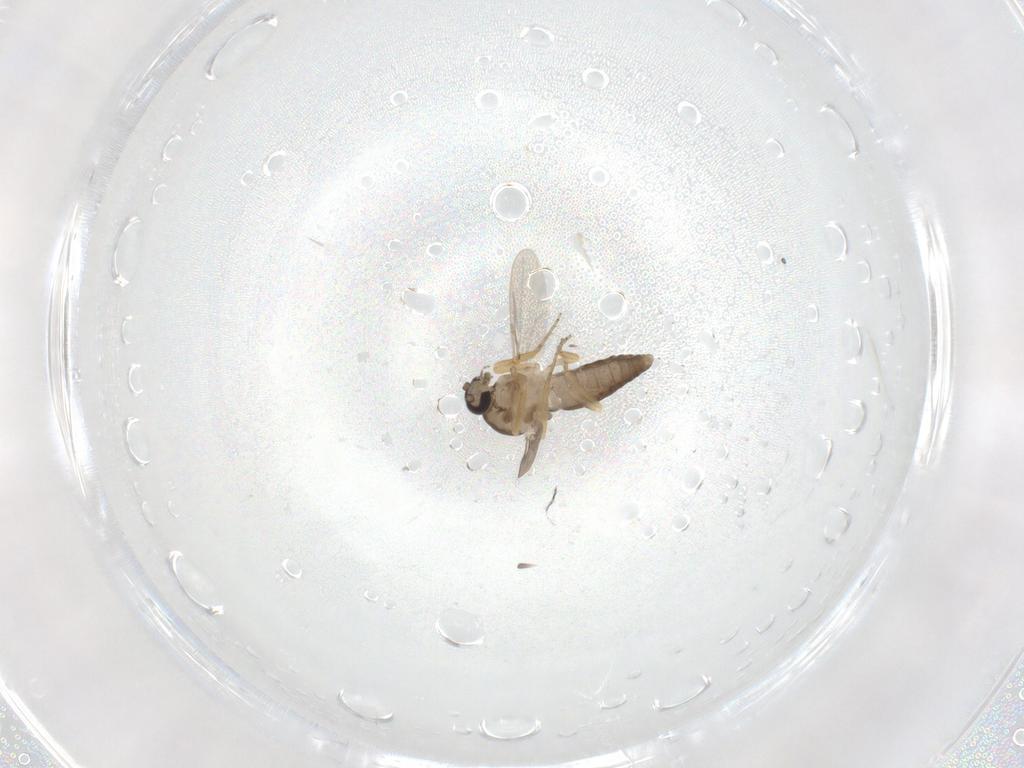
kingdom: Animalia
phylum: Arthropoda
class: Insecta
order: Diptera
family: Ceratopogonidae
